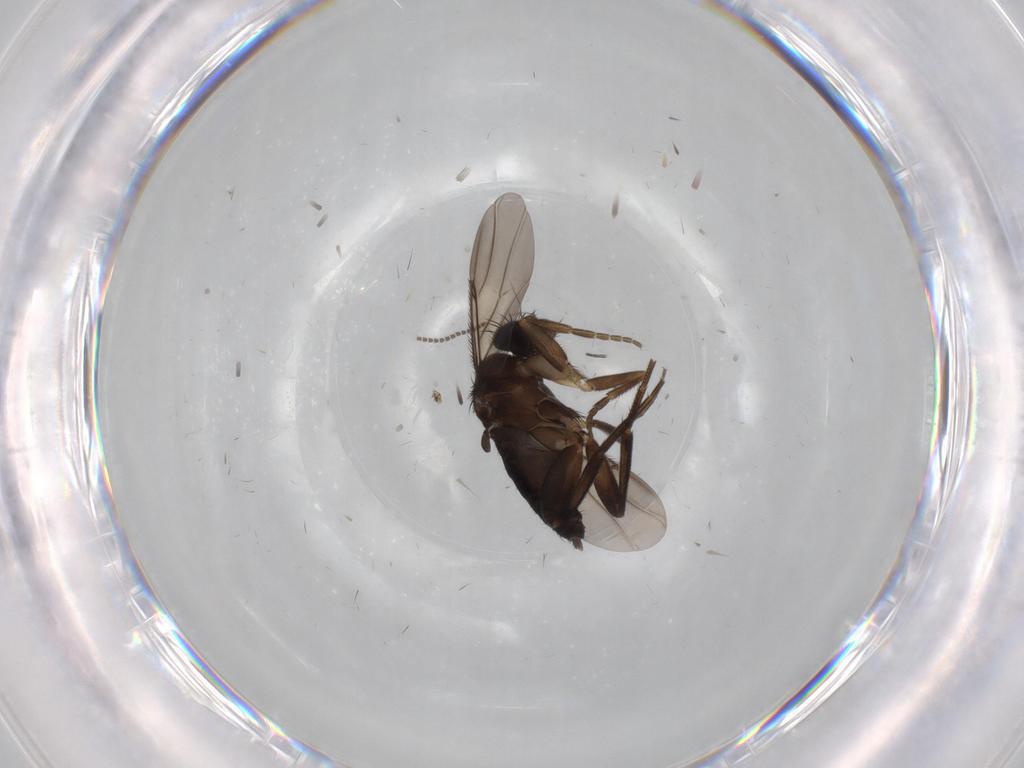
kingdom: Animalia
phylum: Arthropoda
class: Insecta
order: Diptera
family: Phoridae
